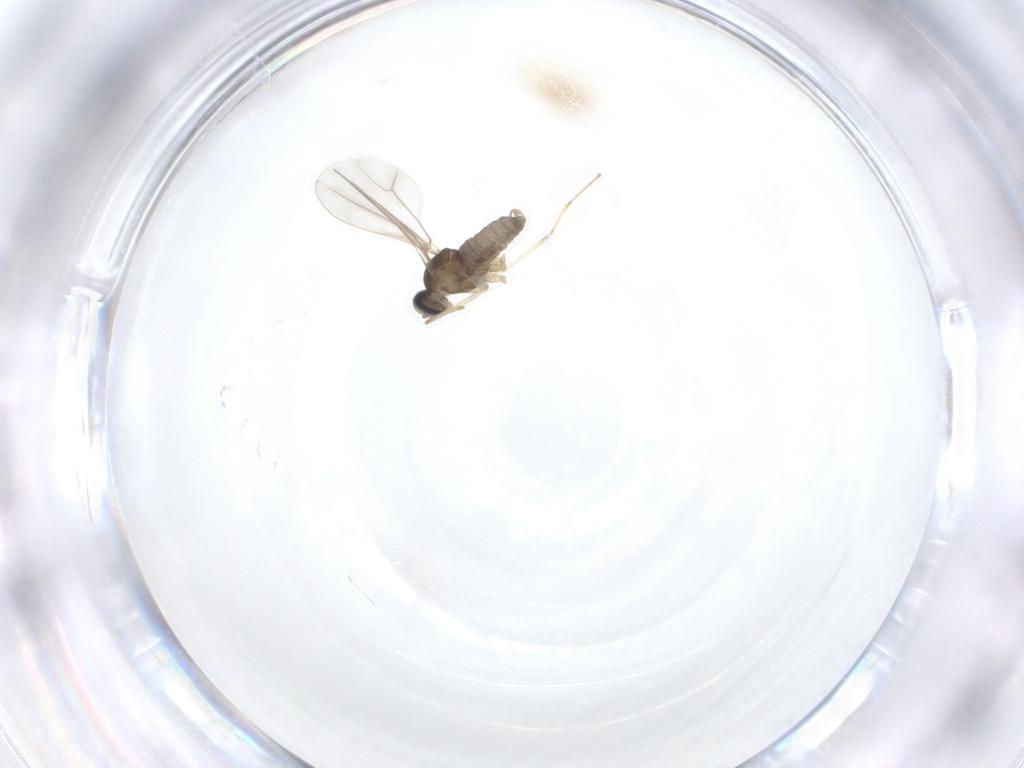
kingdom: Animalia
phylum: Arthropoda
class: Insecta
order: Diptera
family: Cecidomyiidae
